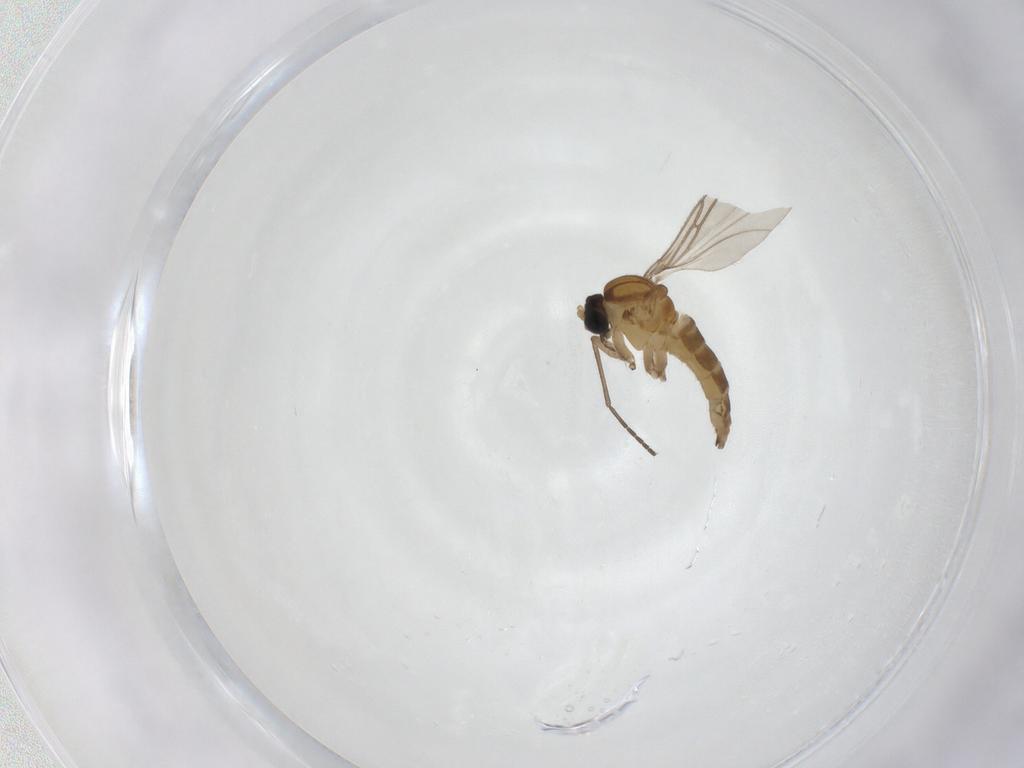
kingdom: Animalia
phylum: Arthropoda
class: Insecta
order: Diptera
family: Sciaridae
